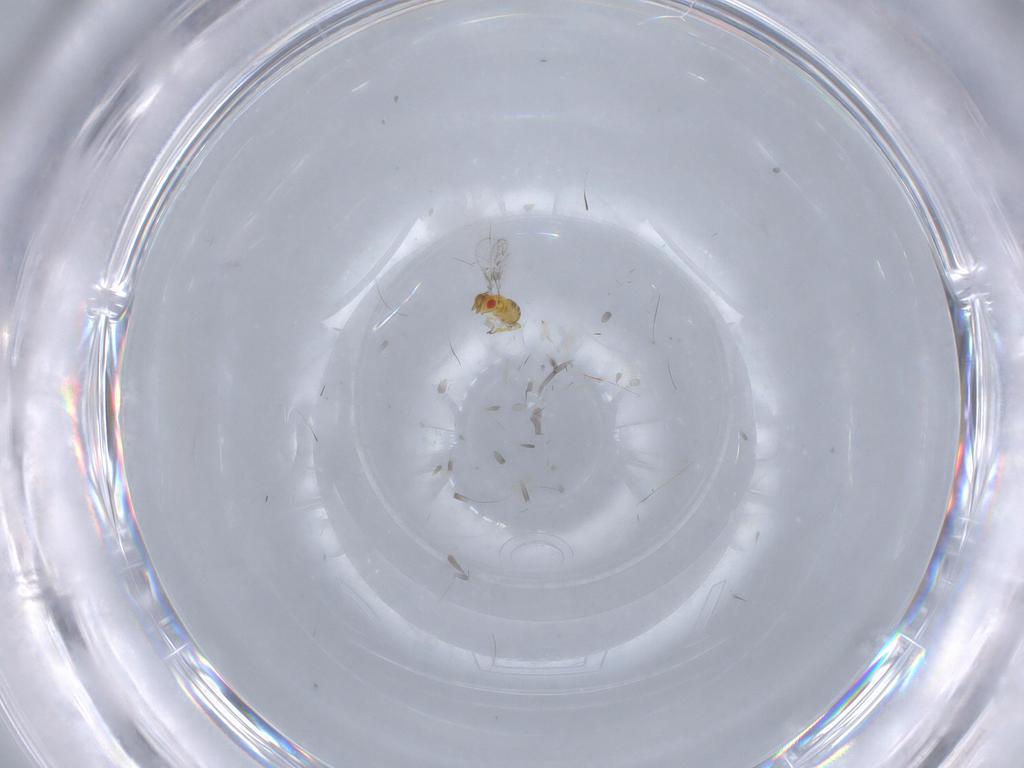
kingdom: Animalia
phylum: Arthropoda
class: Insecta
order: Hymenoptera
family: Trichogrammatidae
